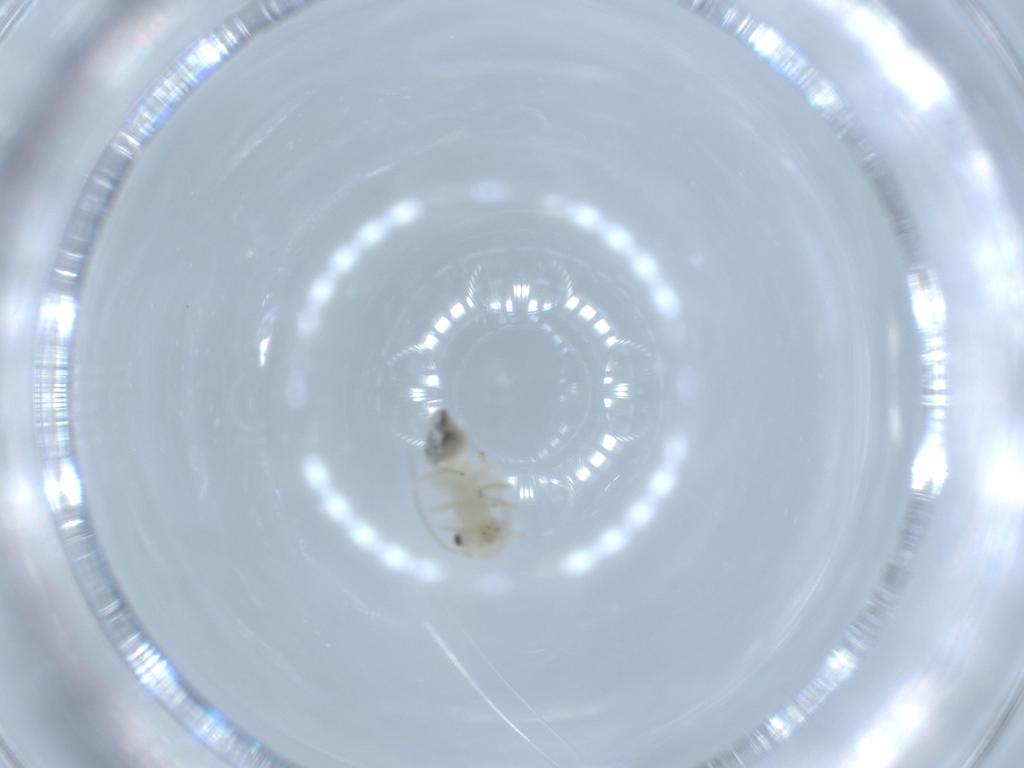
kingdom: Animalia
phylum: Arthropoda
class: Insecta
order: Psocodea
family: Caeciliusidae
